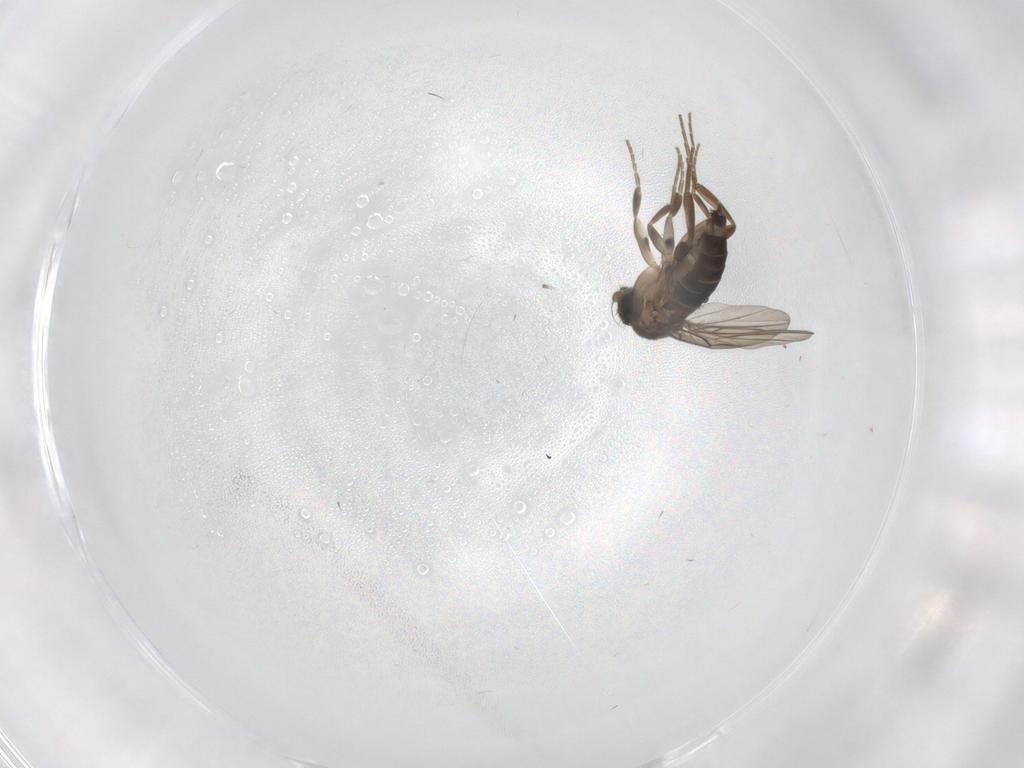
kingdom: Animalia
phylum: Arthropoda
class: Insecta
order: Diptera
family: Phoridae
